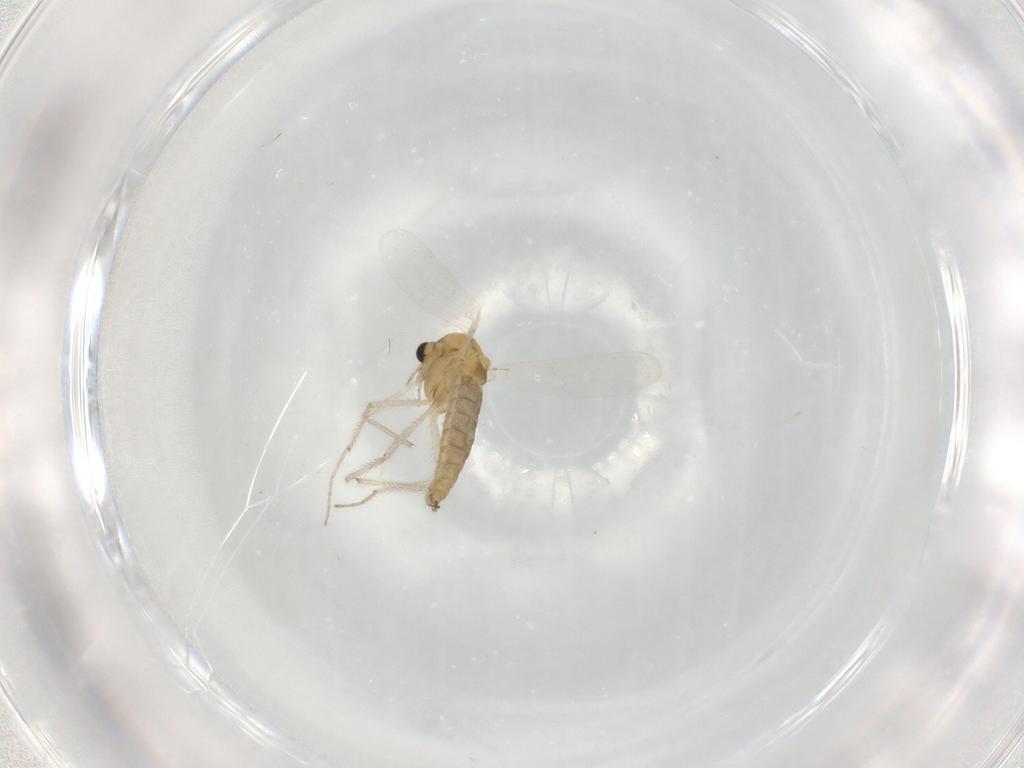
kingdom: Animalia
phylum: Arthropoda
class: Insecta
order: Diptera
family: Chironomidae
